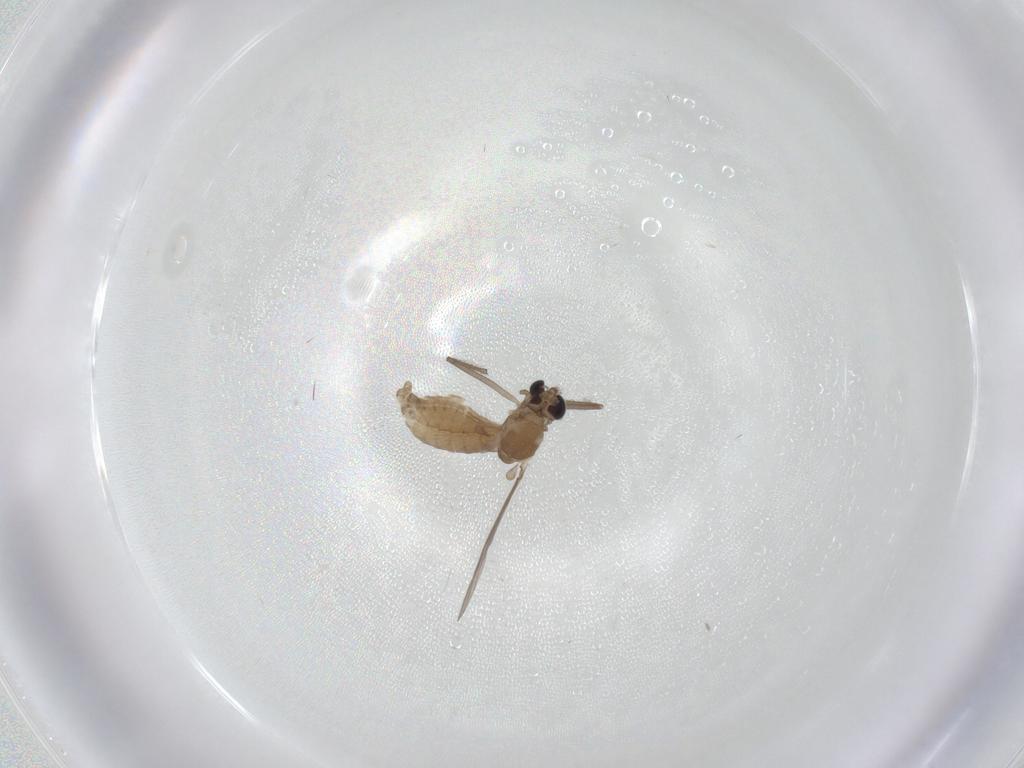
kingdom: Animalia
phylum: Arthropoda
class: Insecta
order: Diptera
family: Chironomidae
